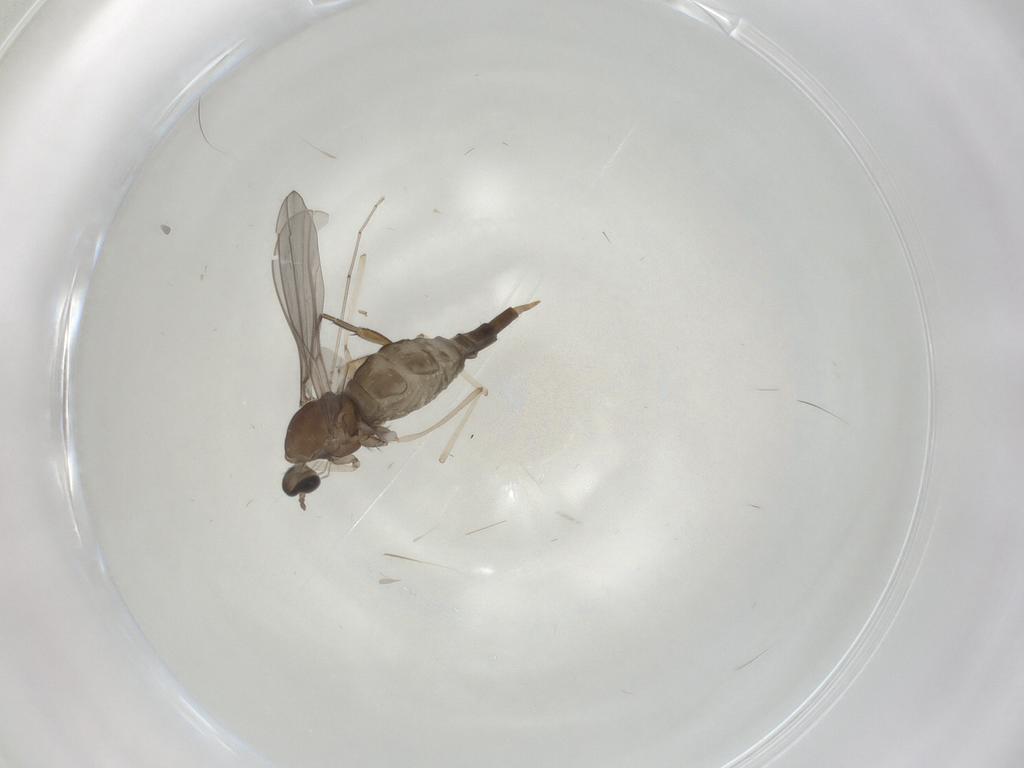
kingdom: Animalia
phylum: Arthropoda
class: Insecta
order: Diptera
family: Cecidomyiidae
